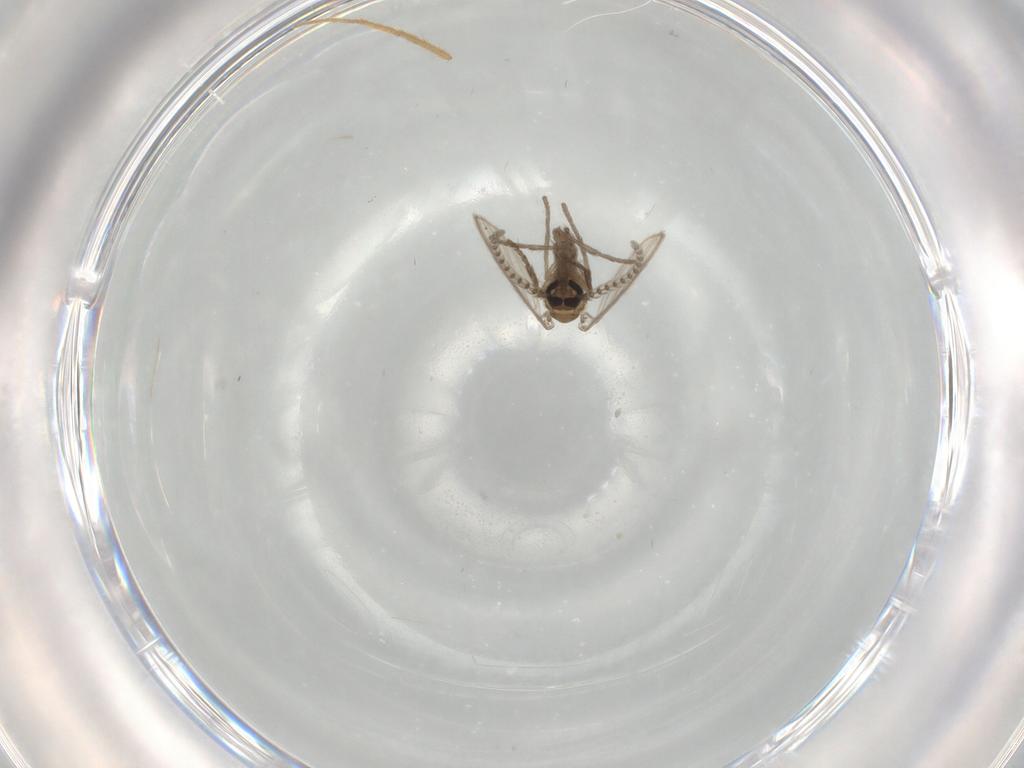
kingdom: Animalia
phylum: Arthropoda
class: Insecta
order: Diptera
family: Psychodidae
